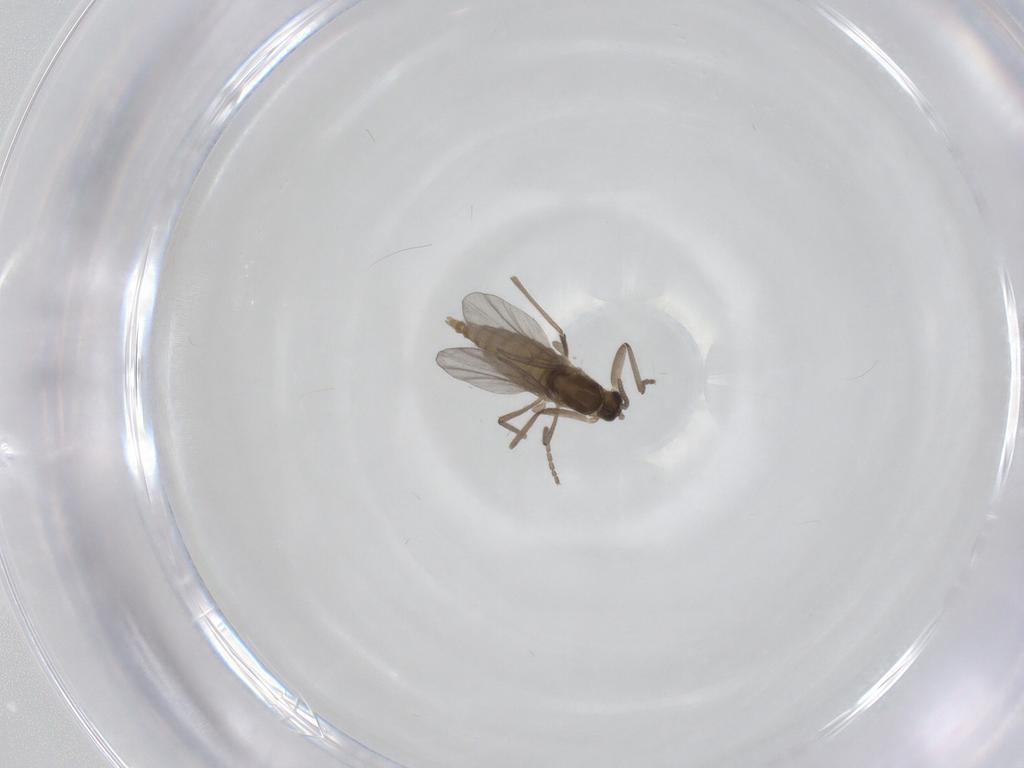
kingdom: Animalia
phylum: Arthropoda
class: Insecta
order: Diptera
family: Cecidomyiidae
